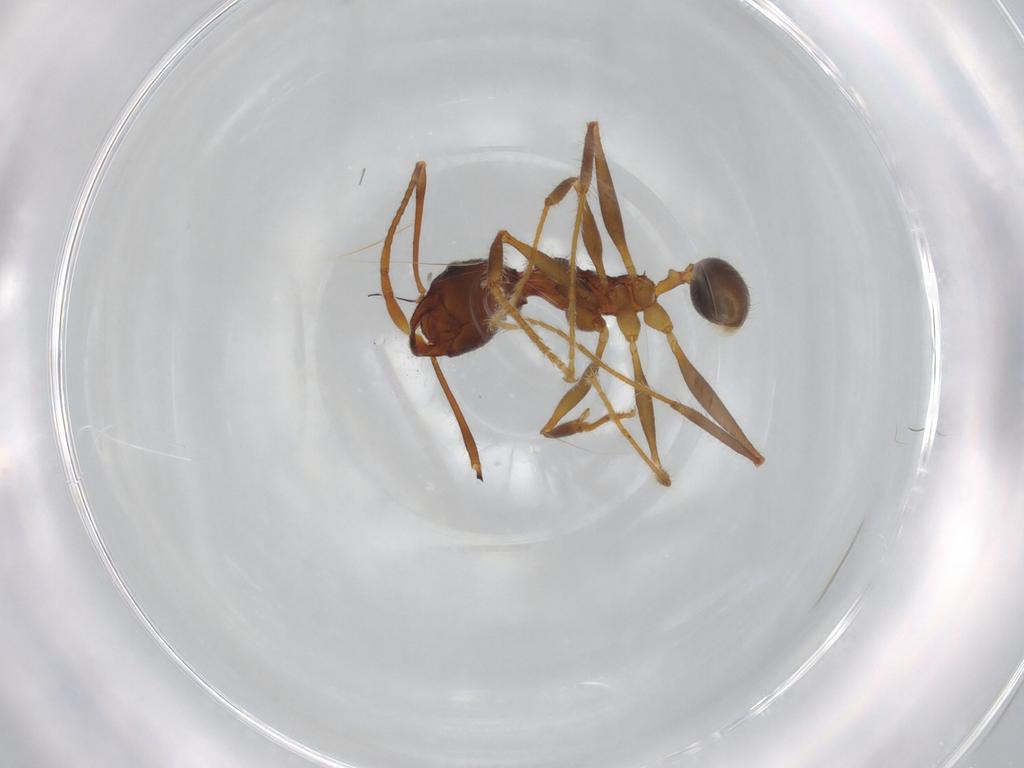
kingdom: Animalia
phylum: Arthropoda
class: Insecta
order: Hymenoptera
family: Formicidae
